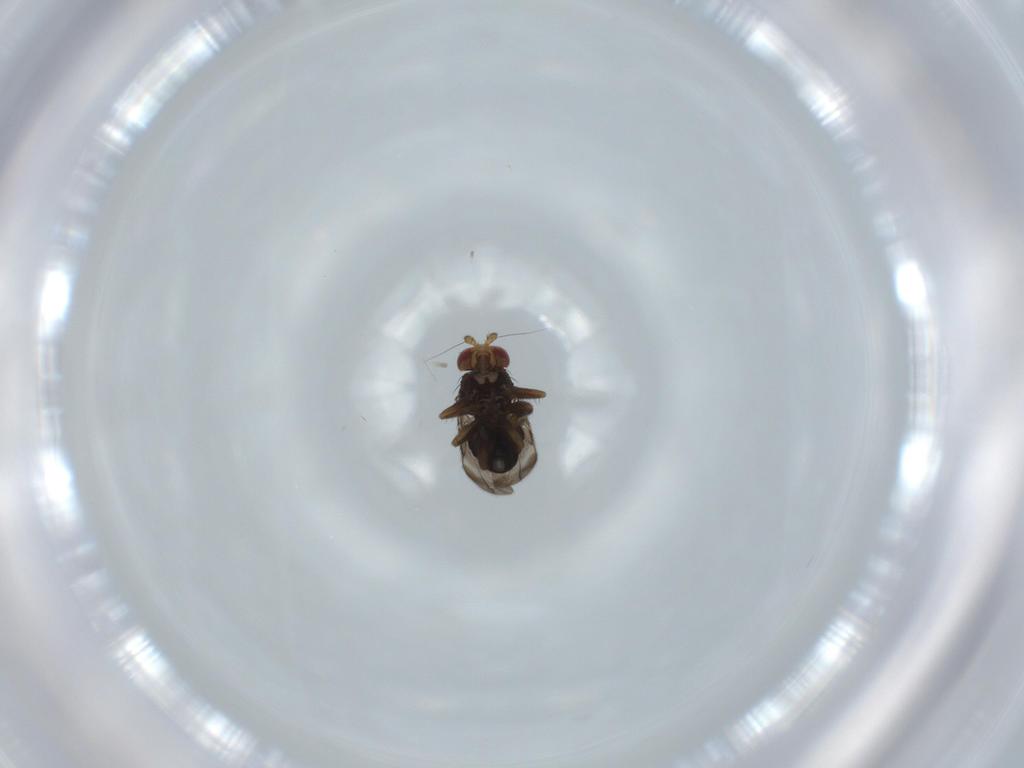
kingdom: Animalia
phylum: Arthropoda
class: Insecta
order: Diptera
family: Sphaeroceridae
